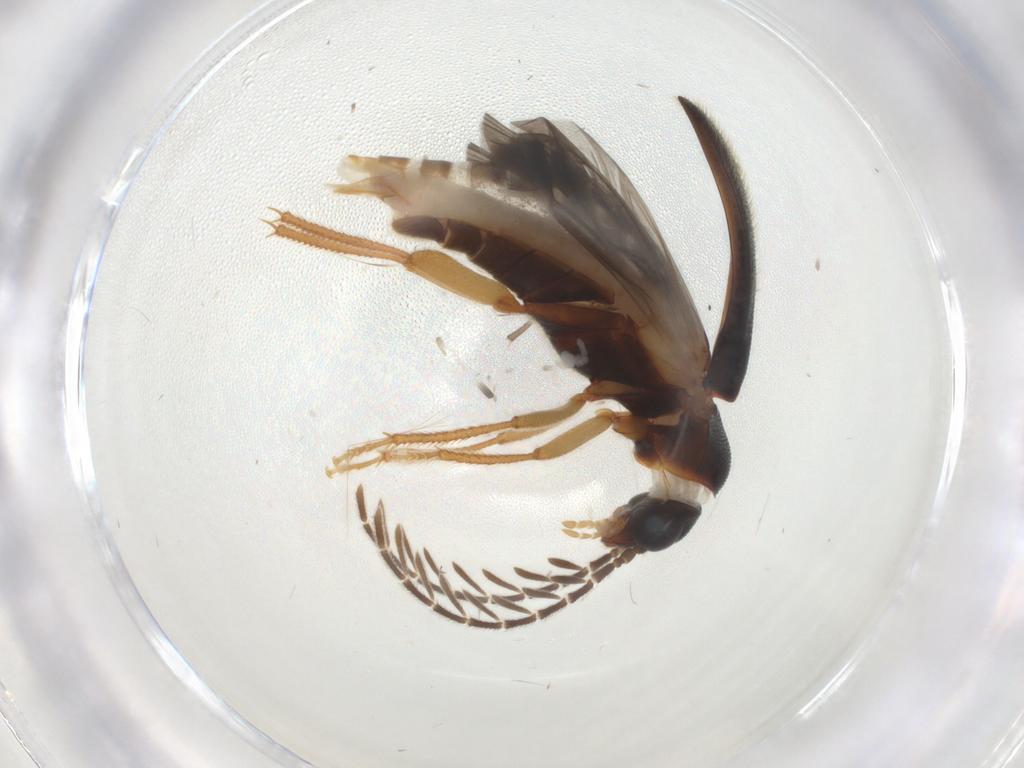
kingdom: Animalia
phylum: Arthropoda
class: Insecta
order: Coleoptera
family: Ptilodactylidae
